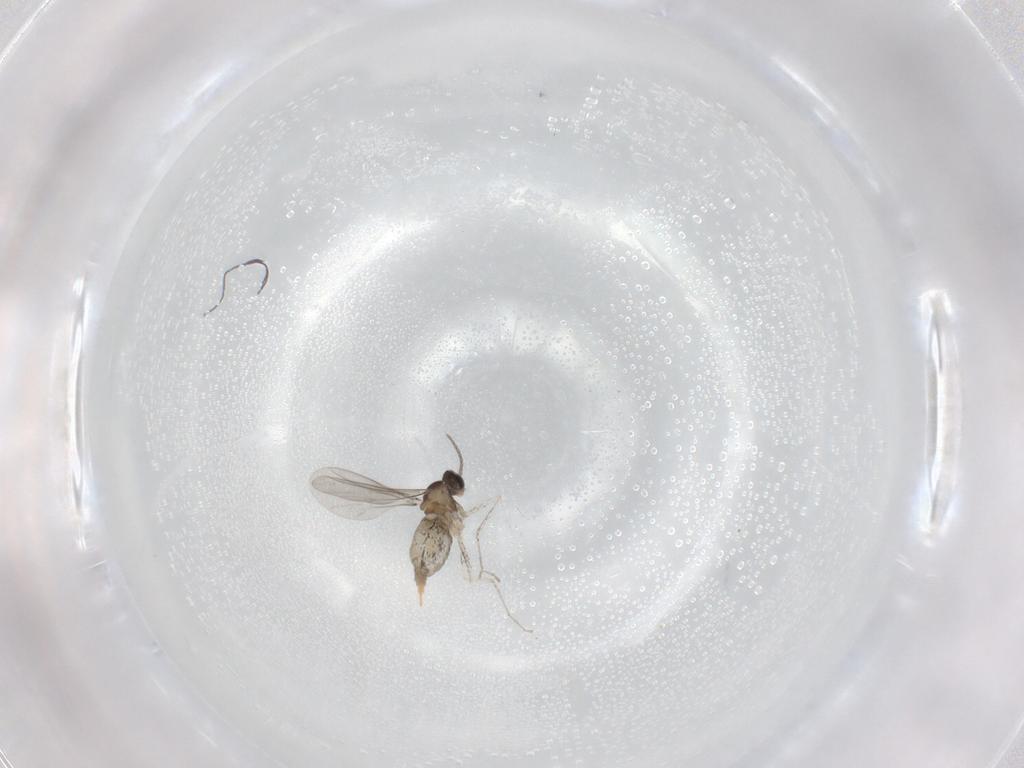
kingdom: Animalia
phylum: Arthropoda
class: Insecta
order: Diptera
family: Cecidomyiidae
